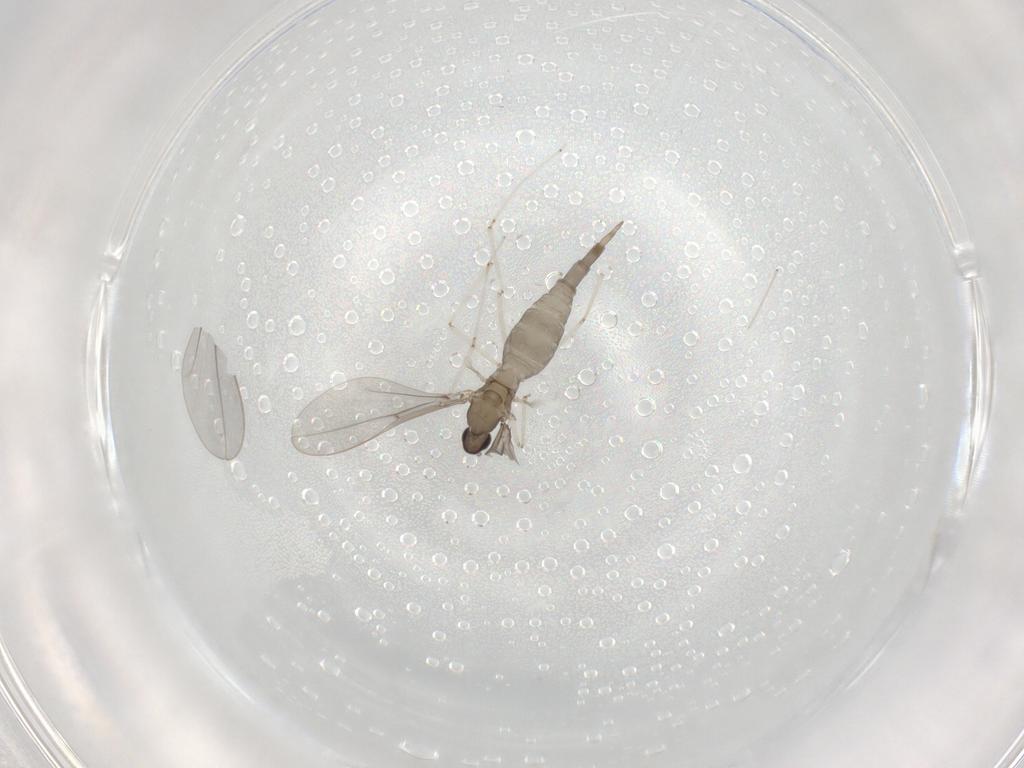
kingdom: Animalia
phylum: Arthropoda
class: Insecta
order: Diptera
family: Cecidomyiidae
